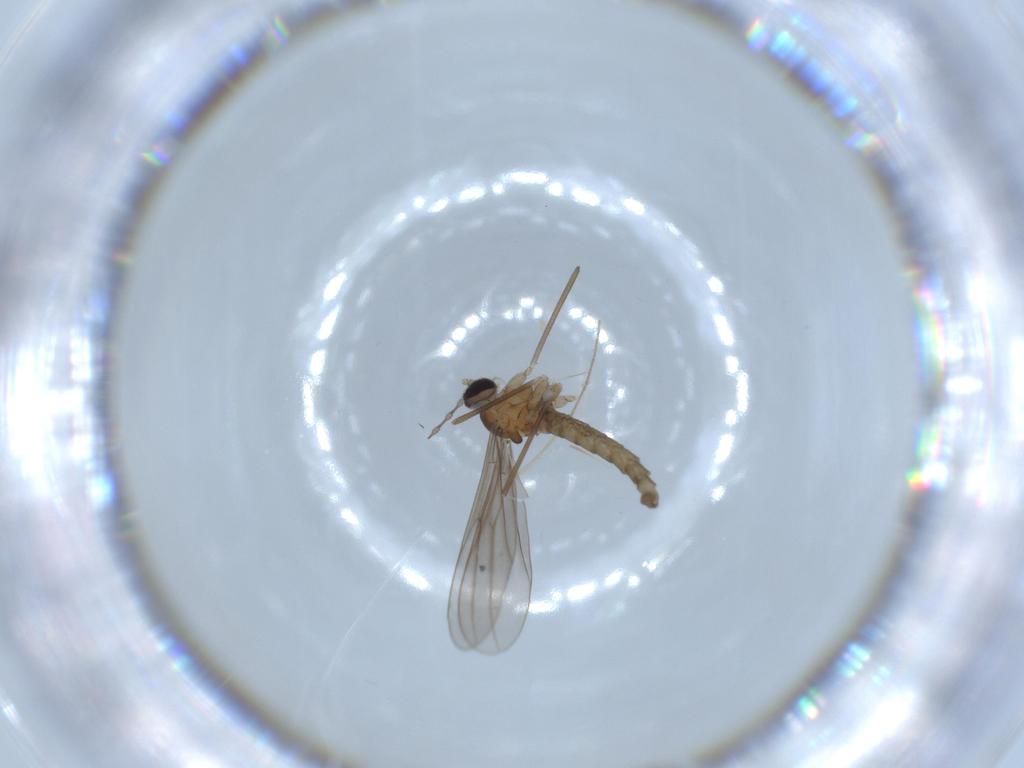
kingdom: Animalia
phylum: Arthropoda
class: Insecta
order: Diptera
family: Cecidomyiidae
